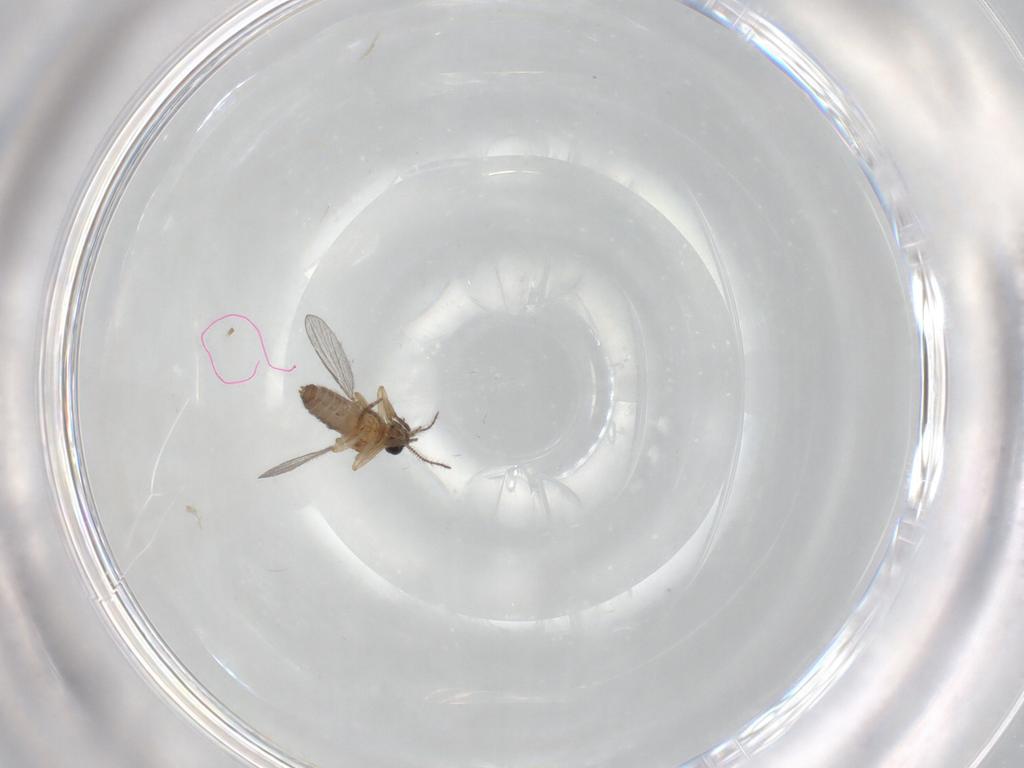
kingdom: Animalia
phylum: Arthropoda
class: Insecta
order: Diptera
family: Ceratopogonidae
